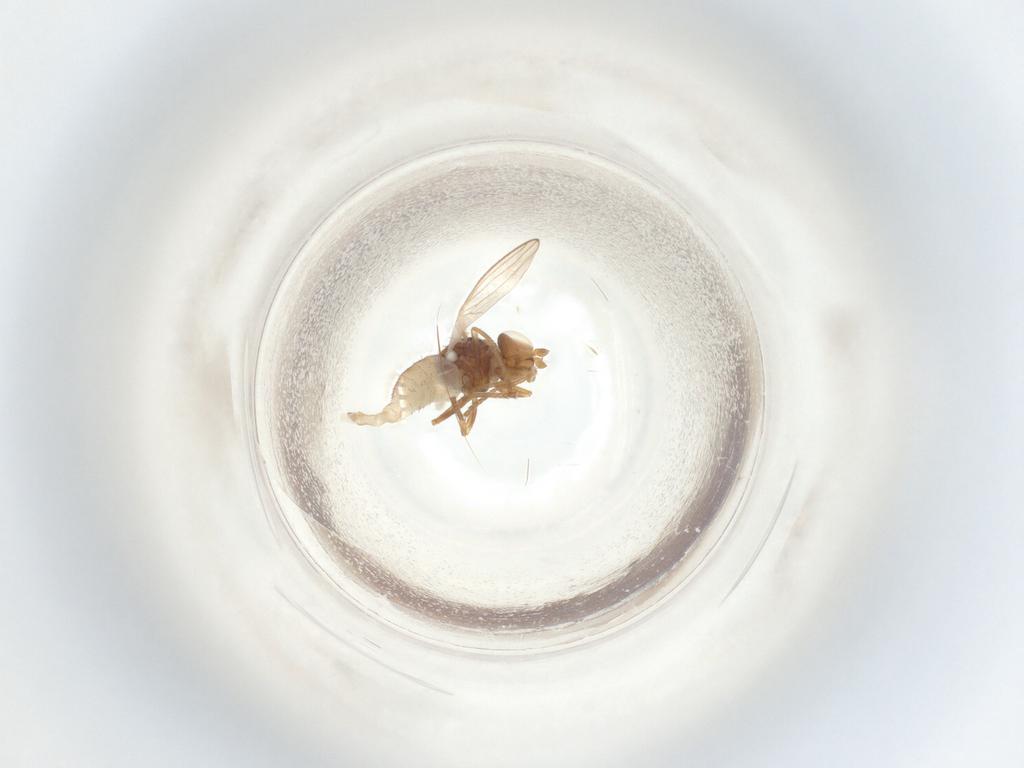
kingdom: Animalia
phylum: Arthropoda
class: Insecta
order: Diptera
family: Chloropidae
